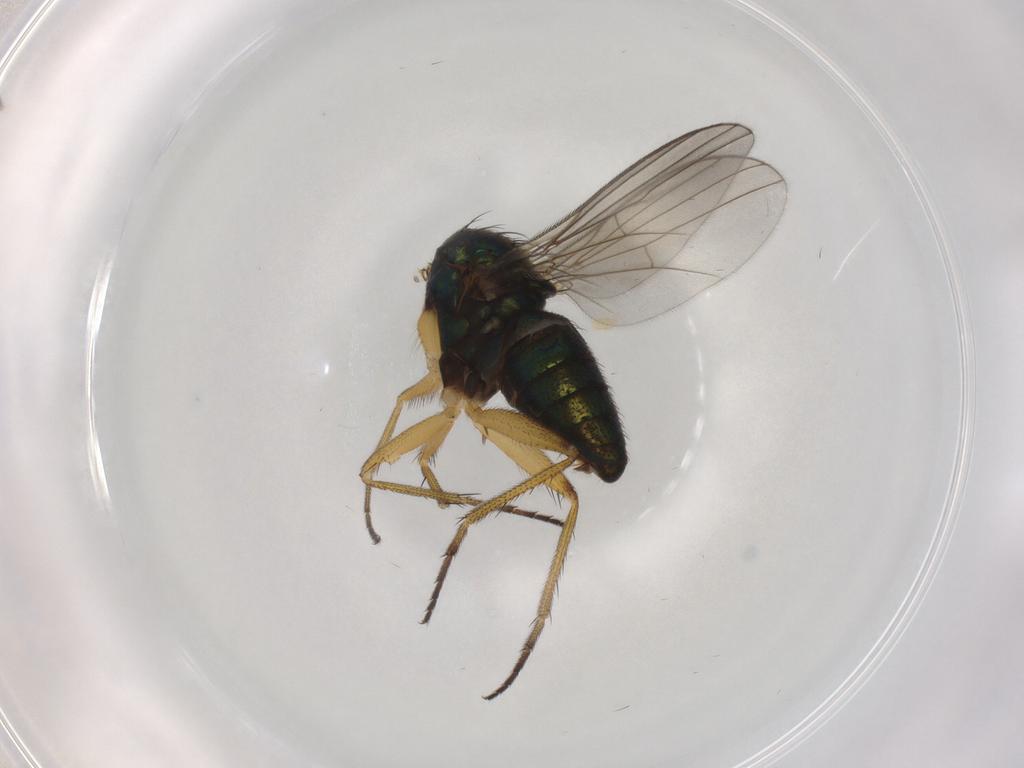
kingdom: Animalia
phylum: Arthropoda
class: Insecta
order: Diptera
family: Dolichopodidae
